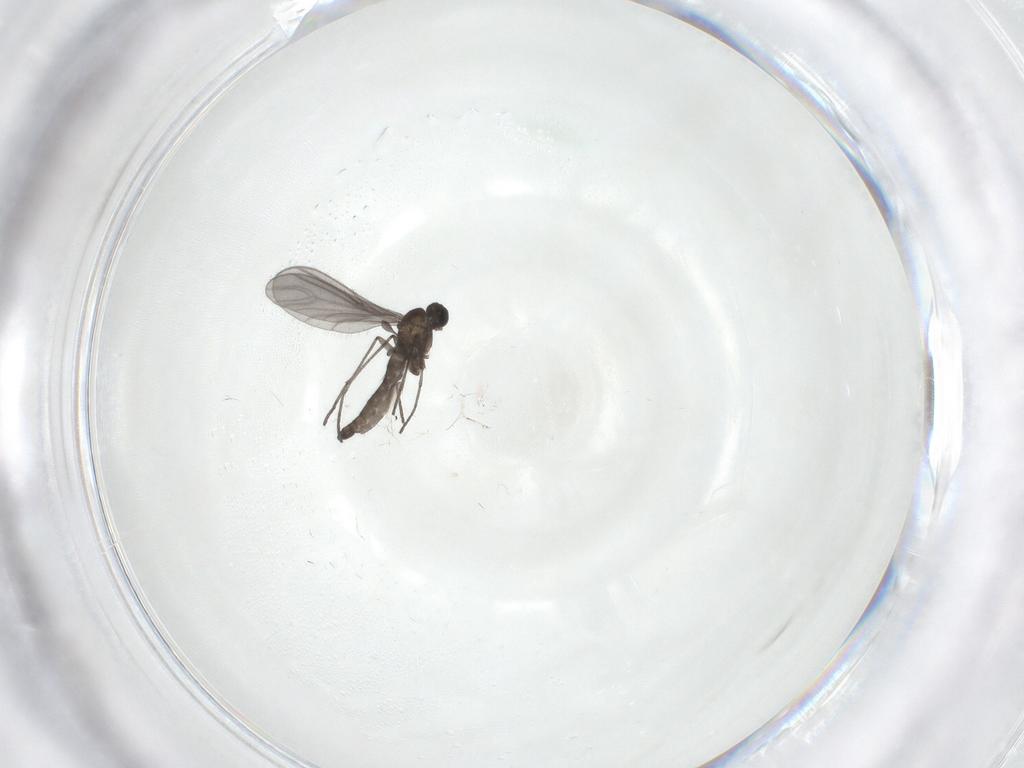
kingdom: Animalia
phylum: Arthropoda
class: Insecta
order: Diptera
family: Sciaridae
